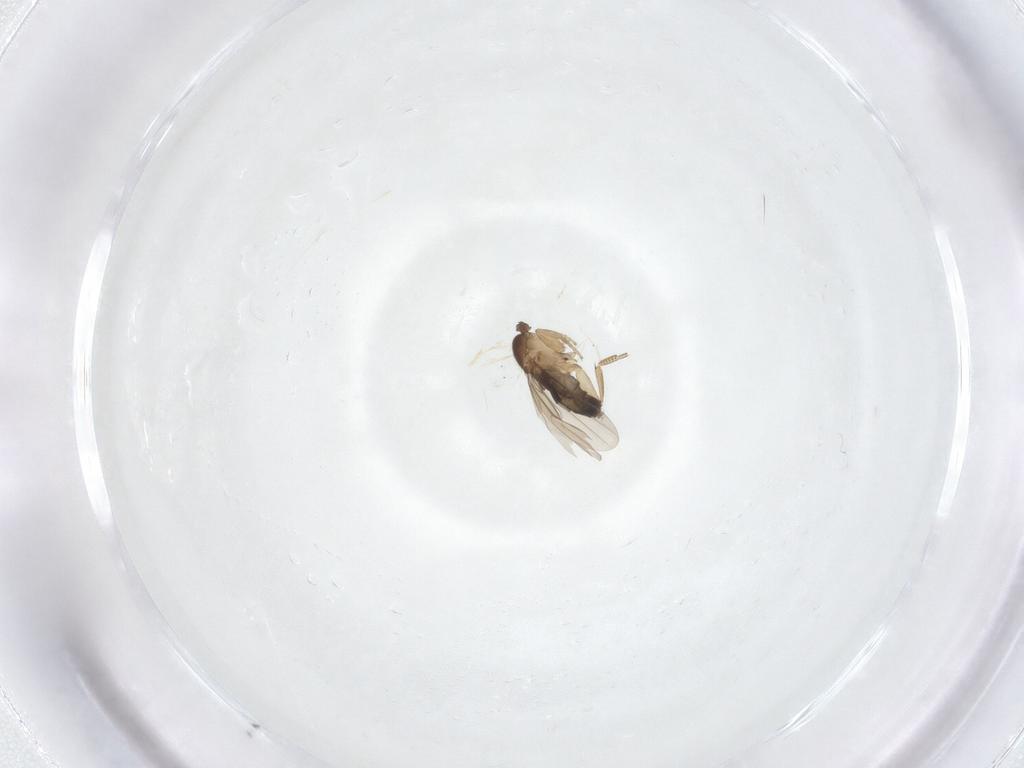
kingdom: Animalia
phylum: Arthropoda
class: Insecta
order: Diptera
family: Phoridae
